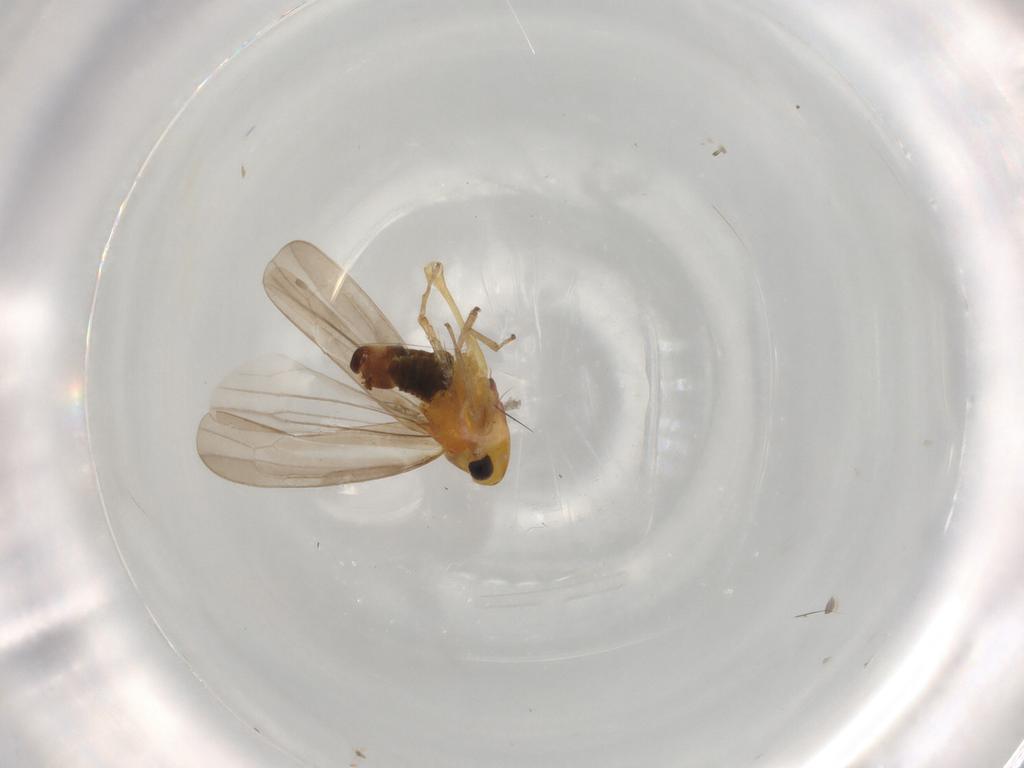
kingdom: Animalia
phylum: Arthropoda
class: Insecta
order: Hemiptera
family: Cicadellidae
